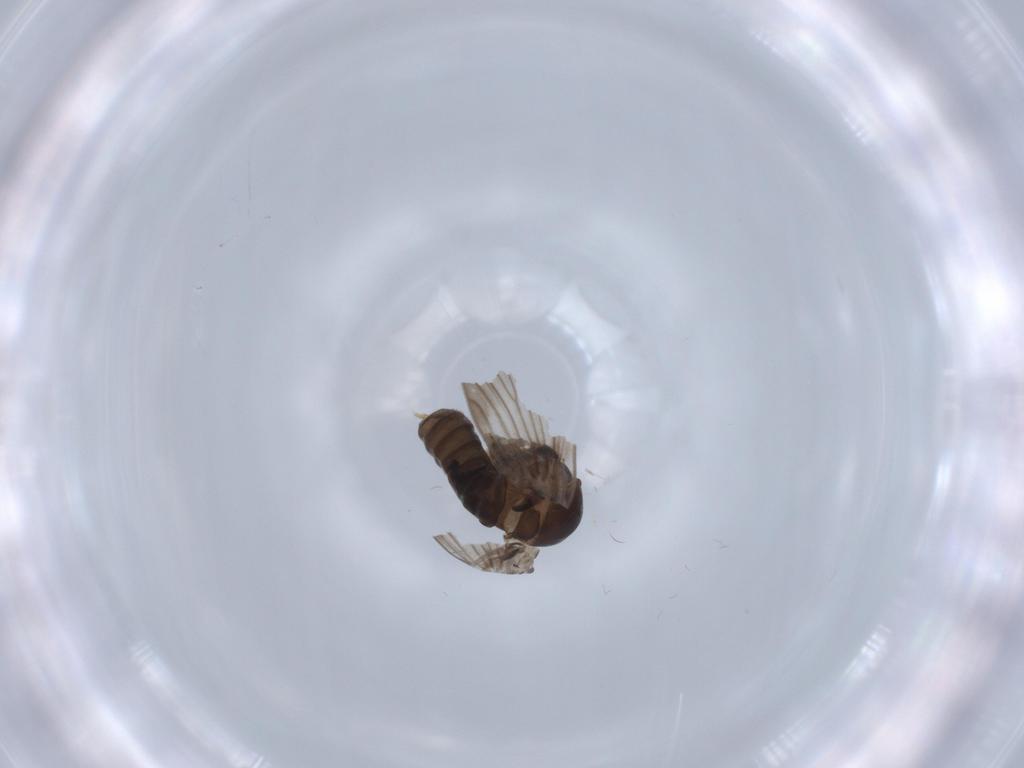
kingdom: Animalia
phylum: Arthropoda
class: Insecta
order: Diptera
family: Psychodidae
